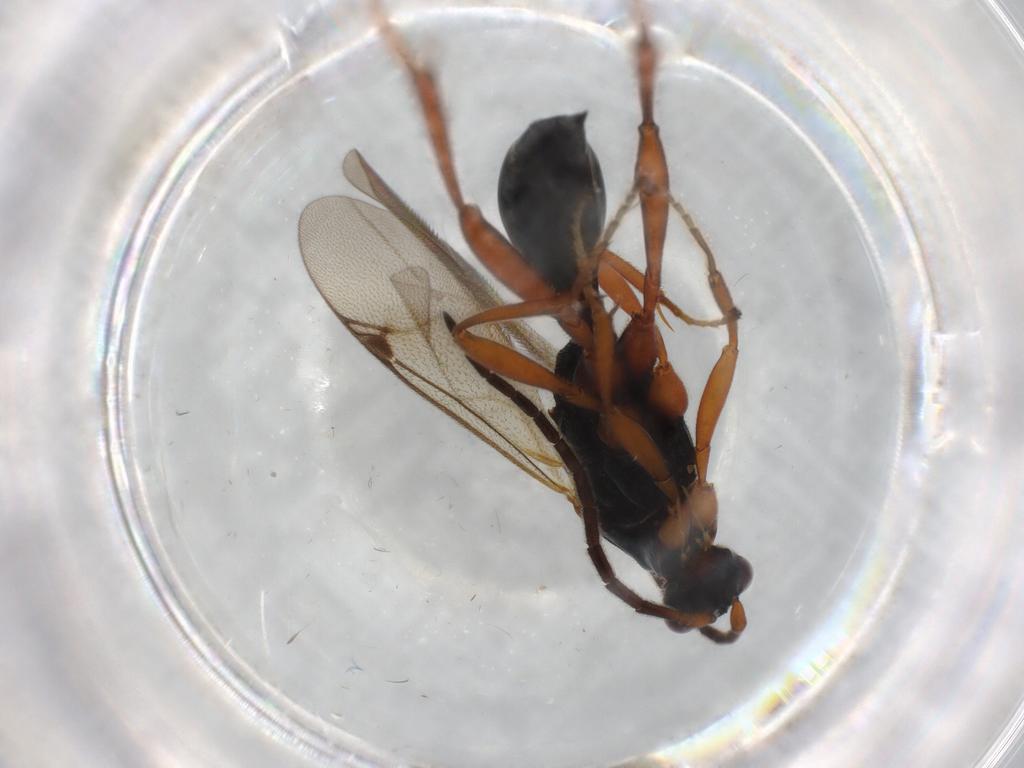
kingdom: Animalia
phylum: Arthropoda
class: Insecta
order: Hymenoptera
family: Proctotrupidae
